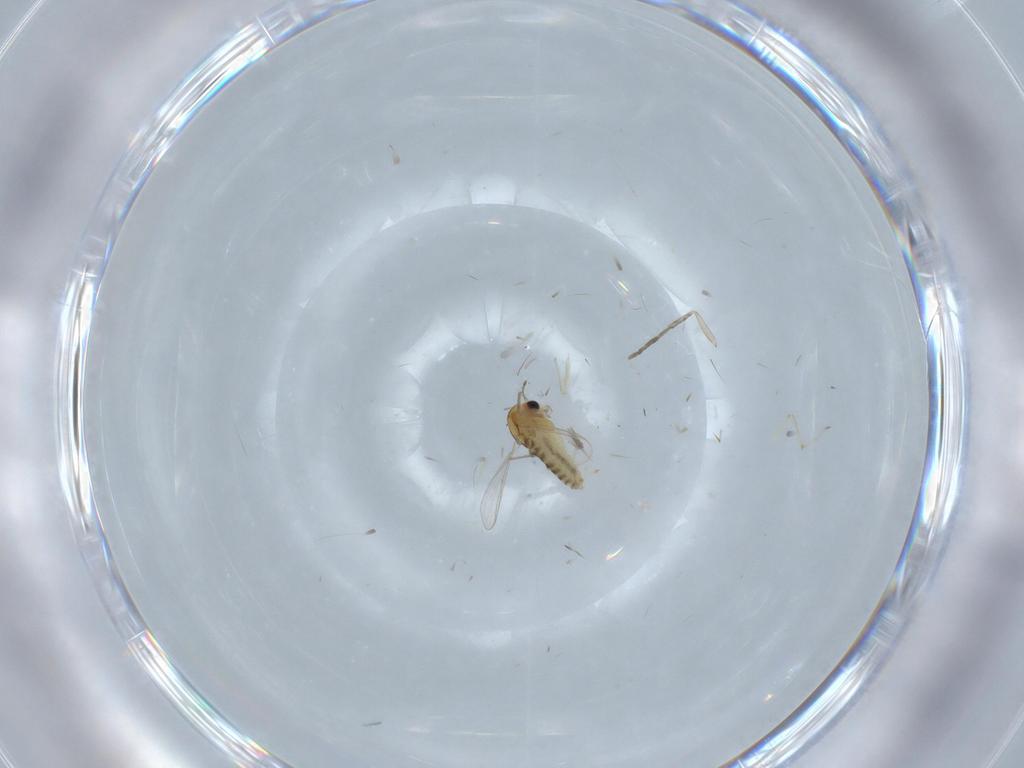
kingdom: Animalia
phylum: Arthropoda
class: Insecta
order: Diptera
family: Chironomidae
